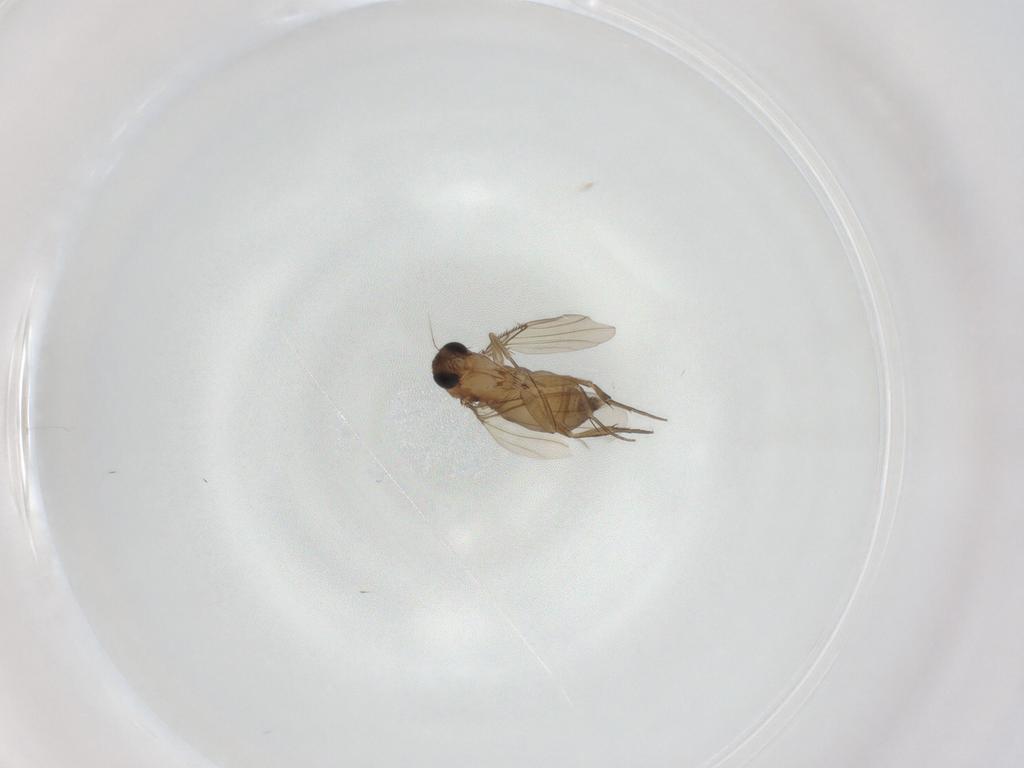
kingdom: Animalia
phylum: Arthropoda
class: Insecta
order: Diptera
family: Phoridae
